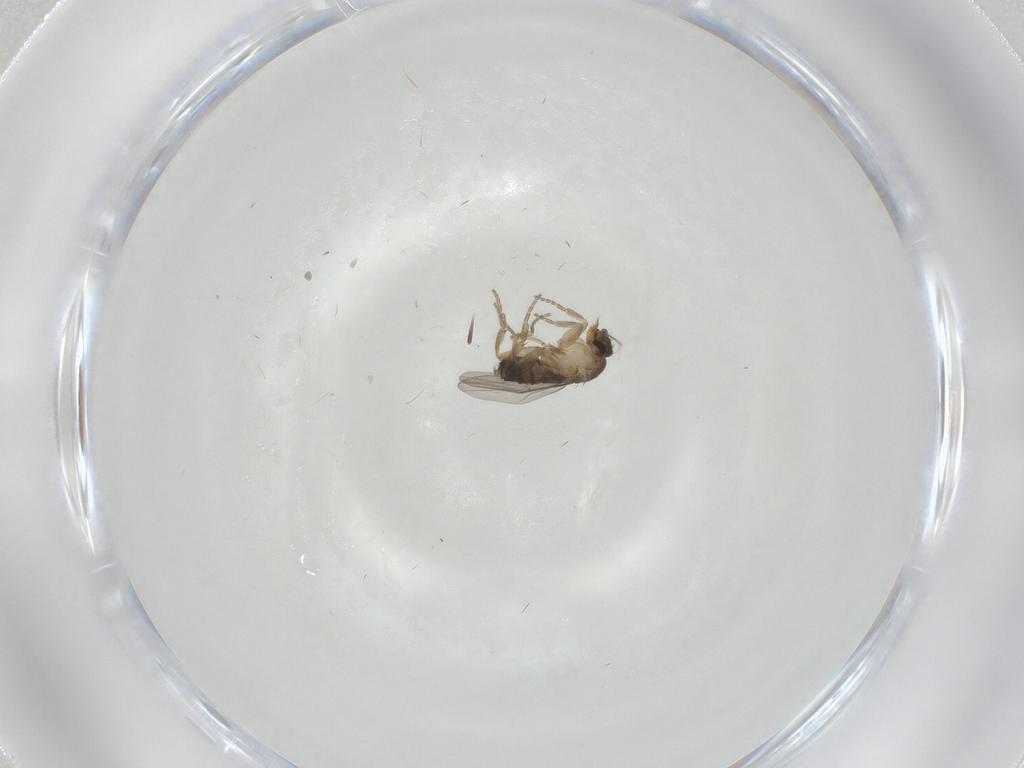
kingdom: Animalia
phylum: Arthropoda
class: Insecta
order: Diptera
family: Phoridae
